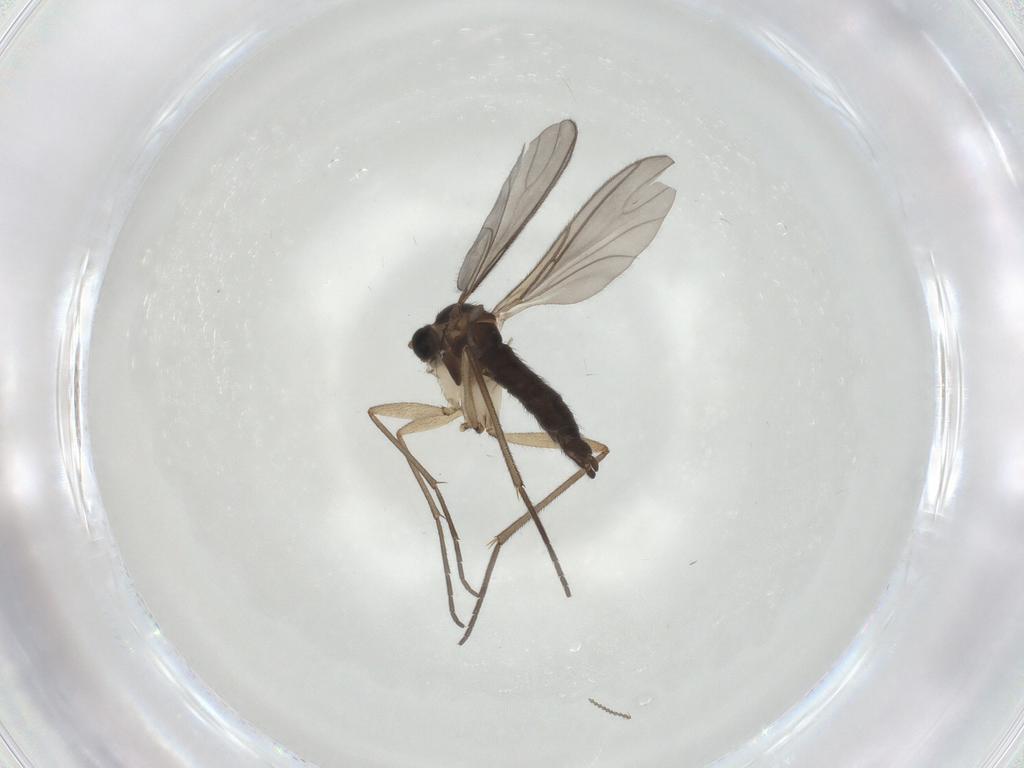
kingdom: Animalia
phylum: Arthropoda
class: Insecta
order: Diptera
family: Sciaridae
